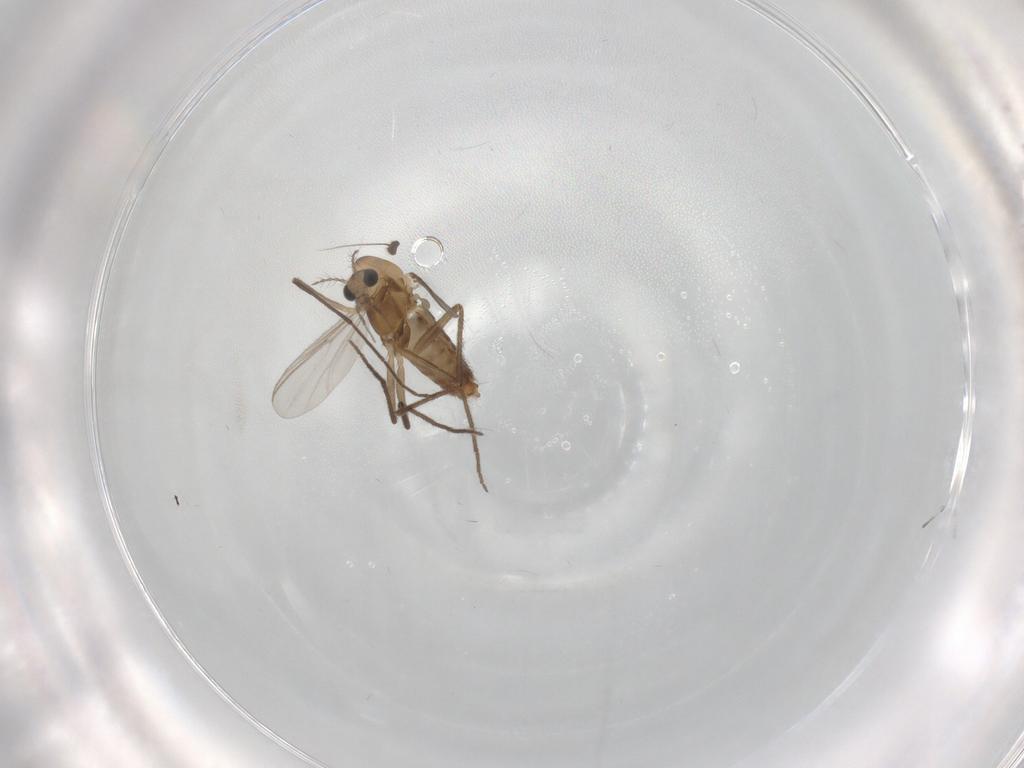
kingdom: Animalia
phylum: Arthropoda
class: Insecta
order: Diptera
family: Chironomidae
